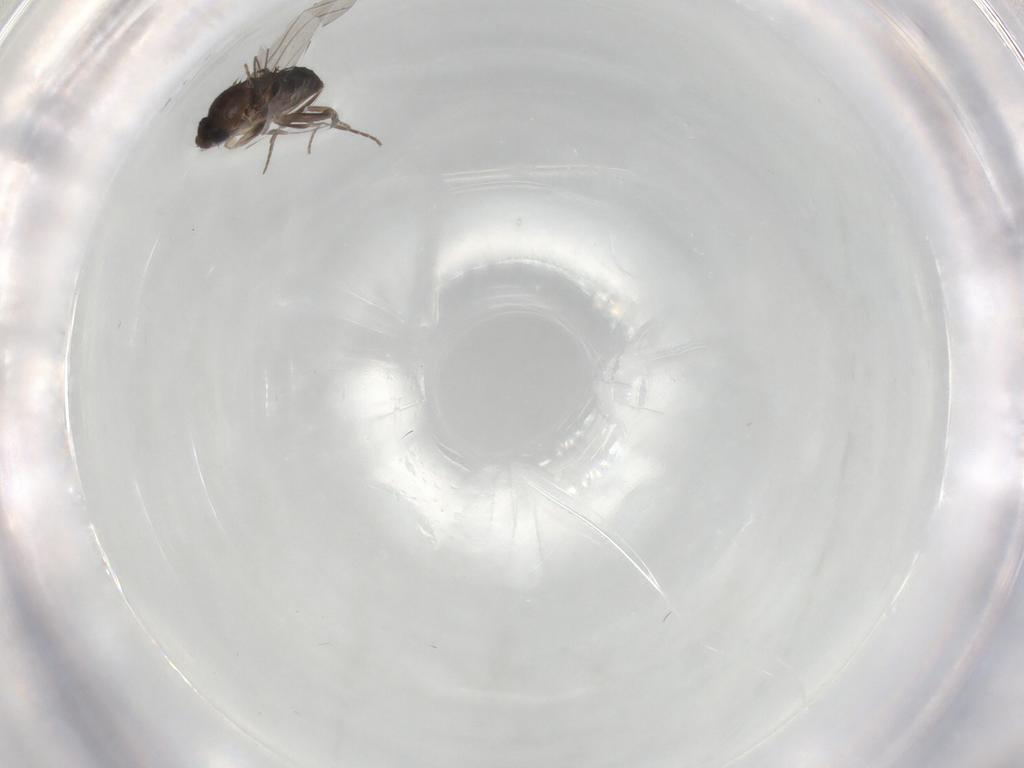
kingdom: Animalia
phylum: Arthropoda
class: Insecta
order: Diptera
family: Phoridae
